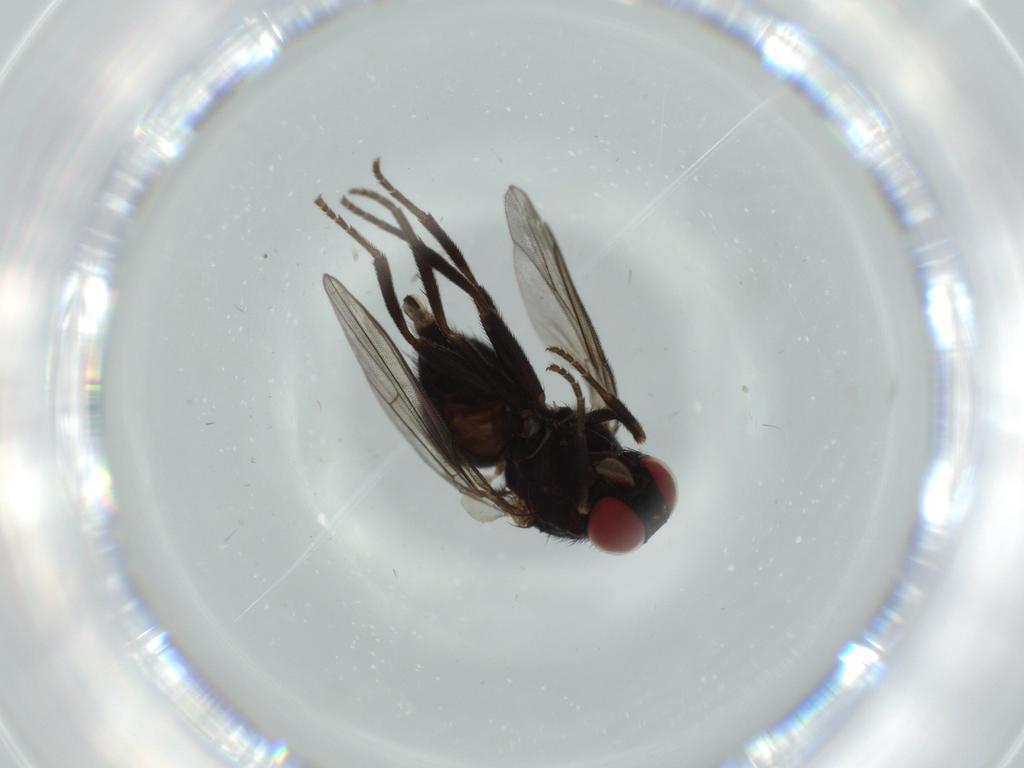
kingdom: Animalia
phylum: Arthropoda
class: Insecta
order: Diptera
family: Agromyzidae
